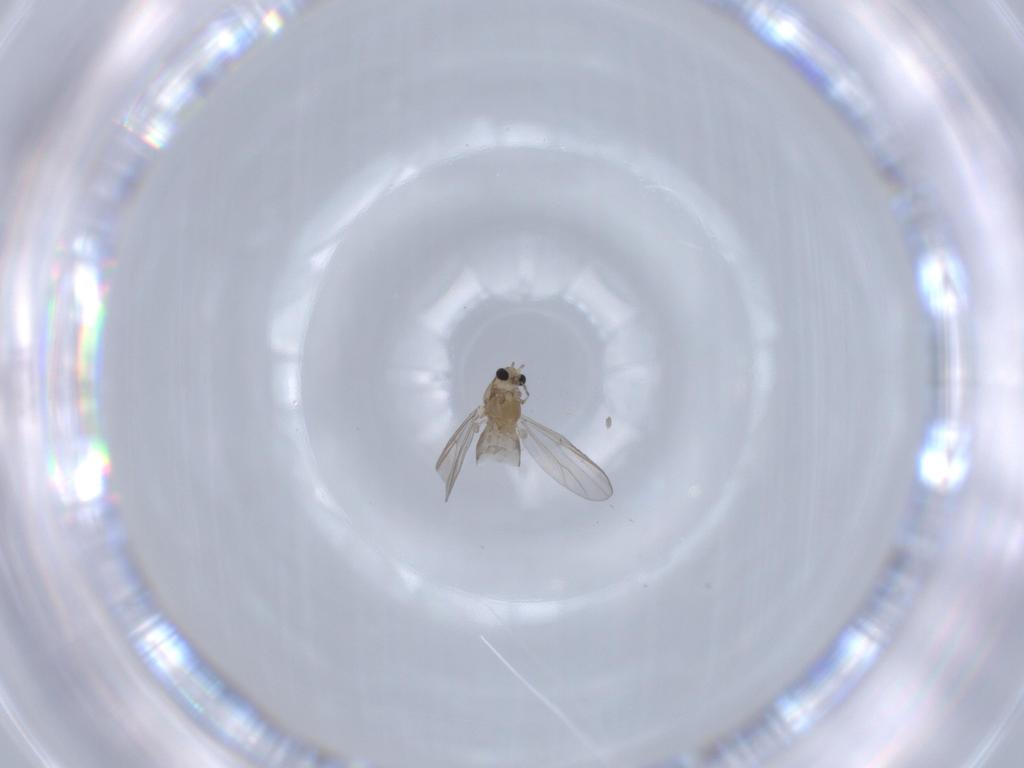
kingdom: Animalia
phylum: Arthropoda
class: Insecta
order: Diptera
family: Chironomidae
